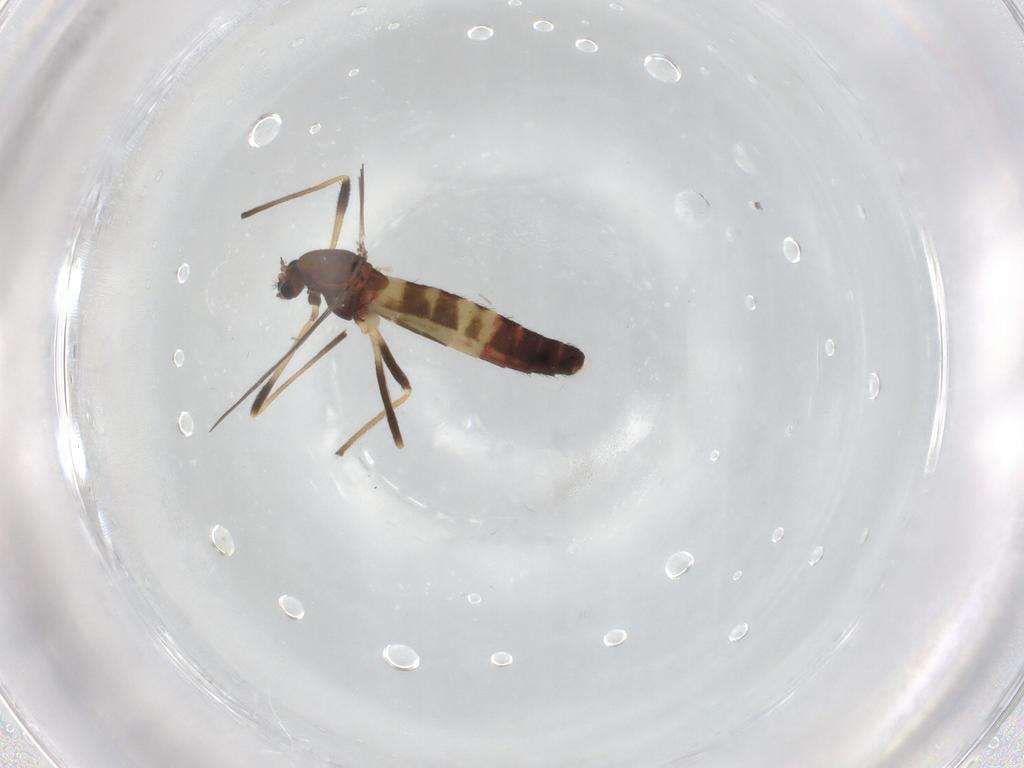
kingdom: Animalia
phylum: Arthropoda
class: Insecta
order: Diptera
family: Chironomidae
